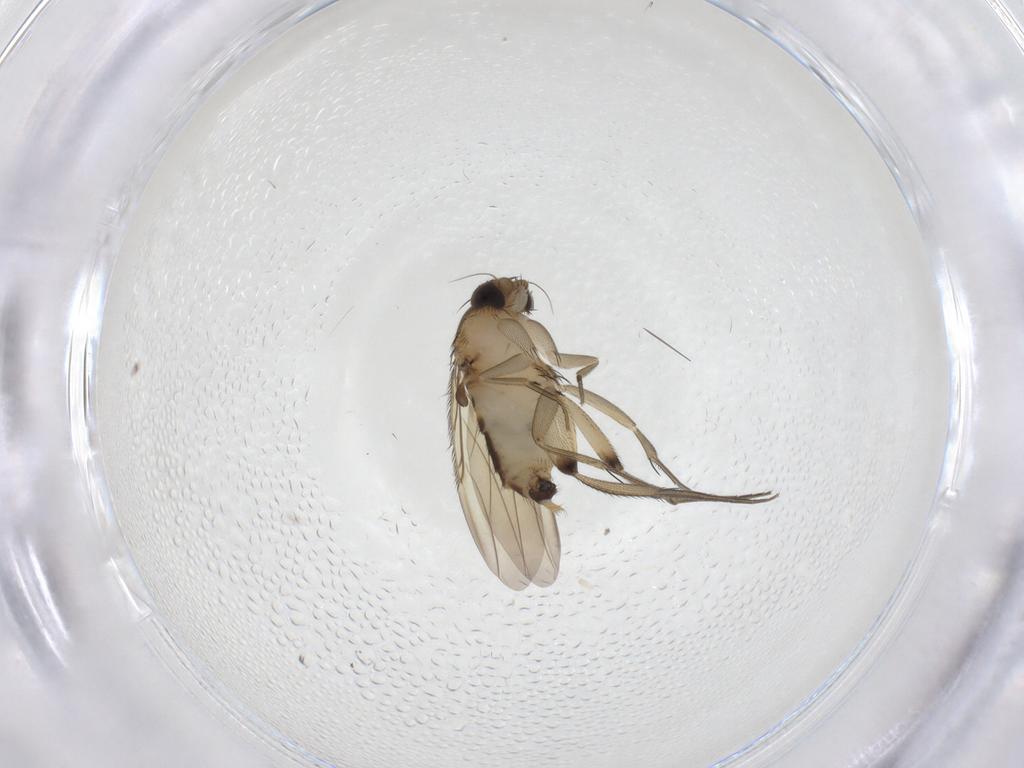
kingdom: Animalia
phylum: Arthropoda
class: Insecta
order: Diptera
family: Phoridae
